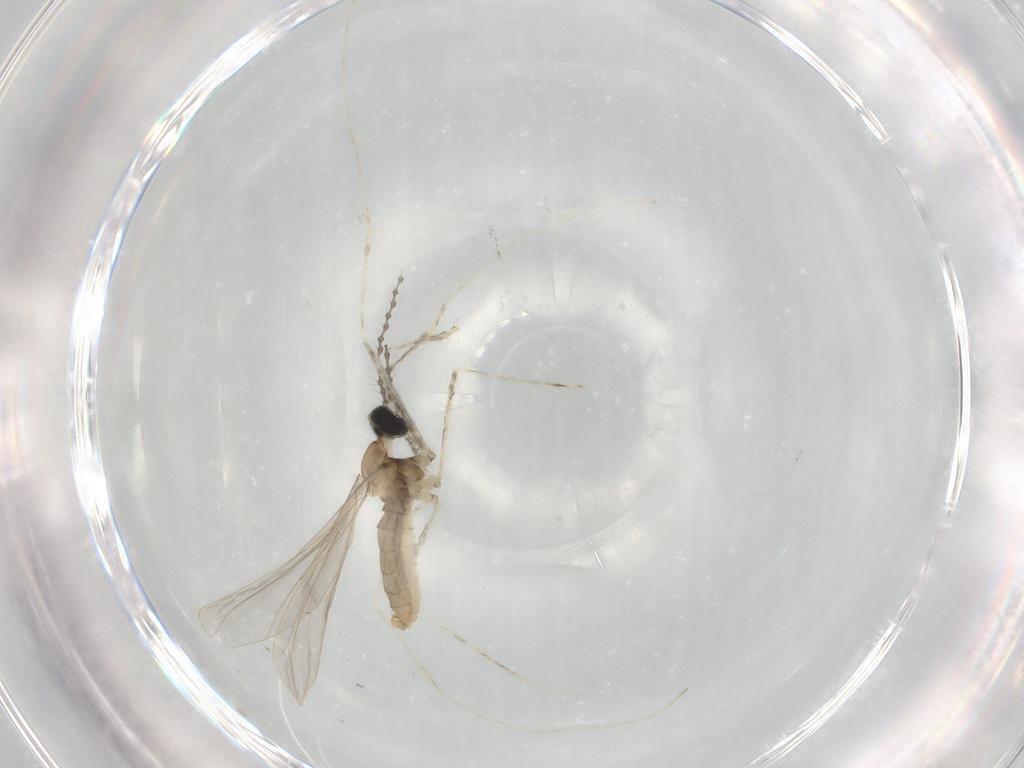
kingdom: Animalia
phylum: Arthropoda
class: Insecta
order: Diptera
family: Cecidomyiidae
